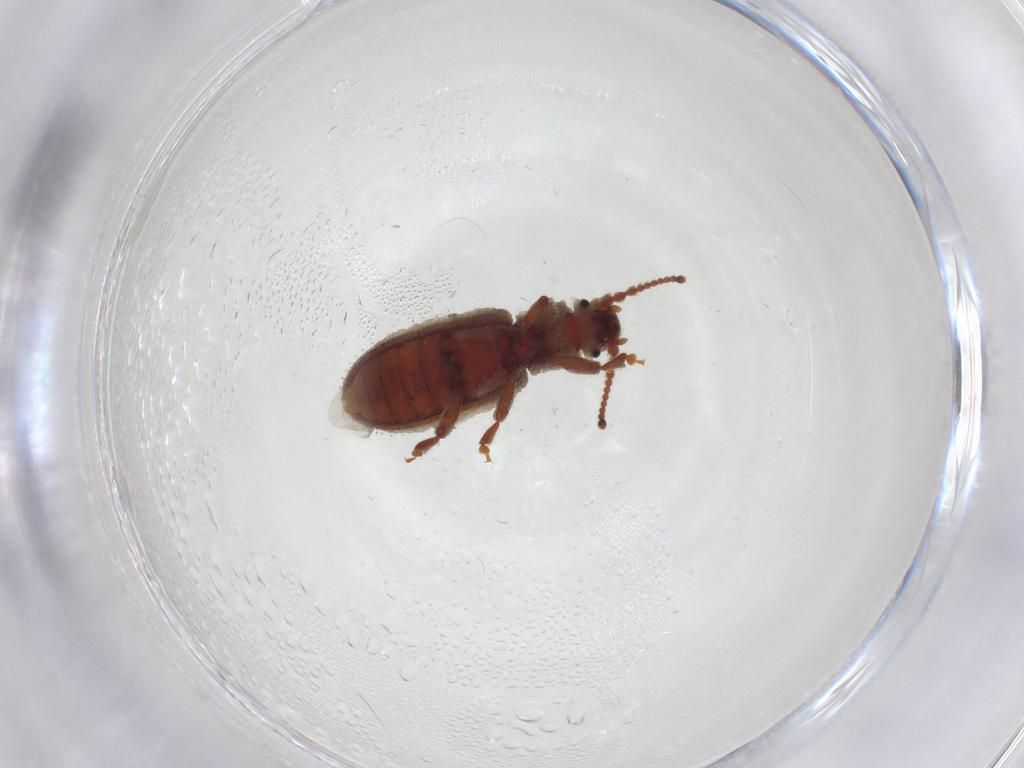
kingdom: Animalia
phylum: Arthropoda
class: Insecta
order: Coleoptera
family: Zopheridae
